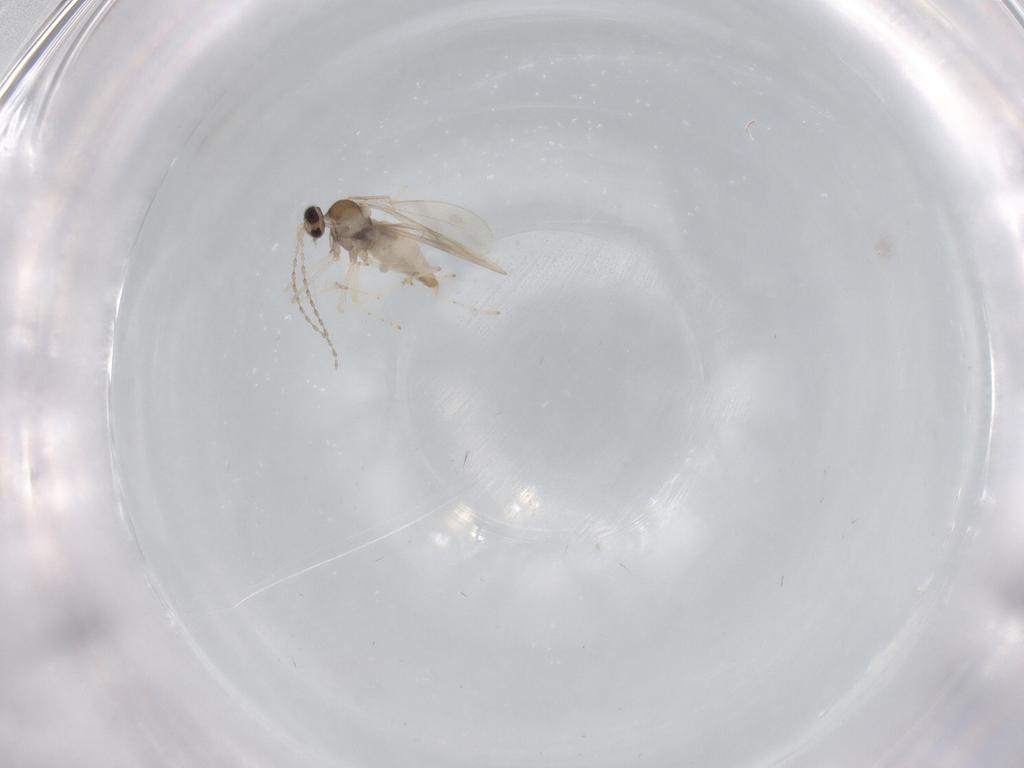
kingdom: Animalia
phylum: Arthropoda
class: Insecta
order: Diptera
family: Cecidomyiidae
